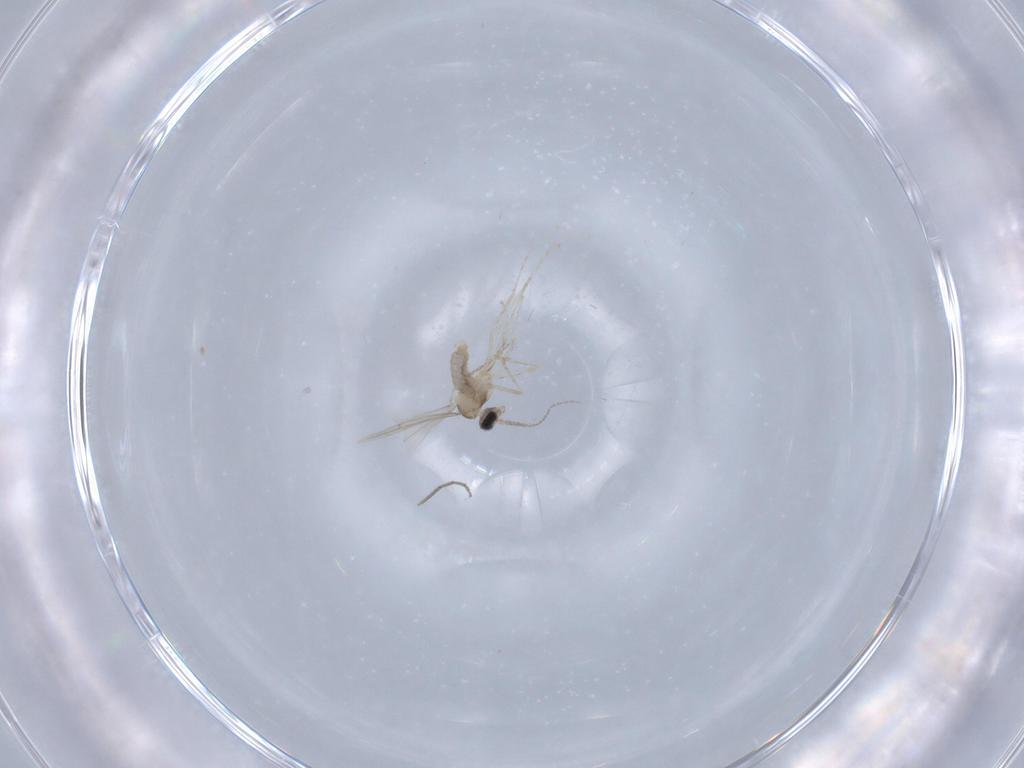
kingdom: Animalia
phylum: Arthropoda
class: Insecta
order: Diptera
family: Cecidomyiidae
